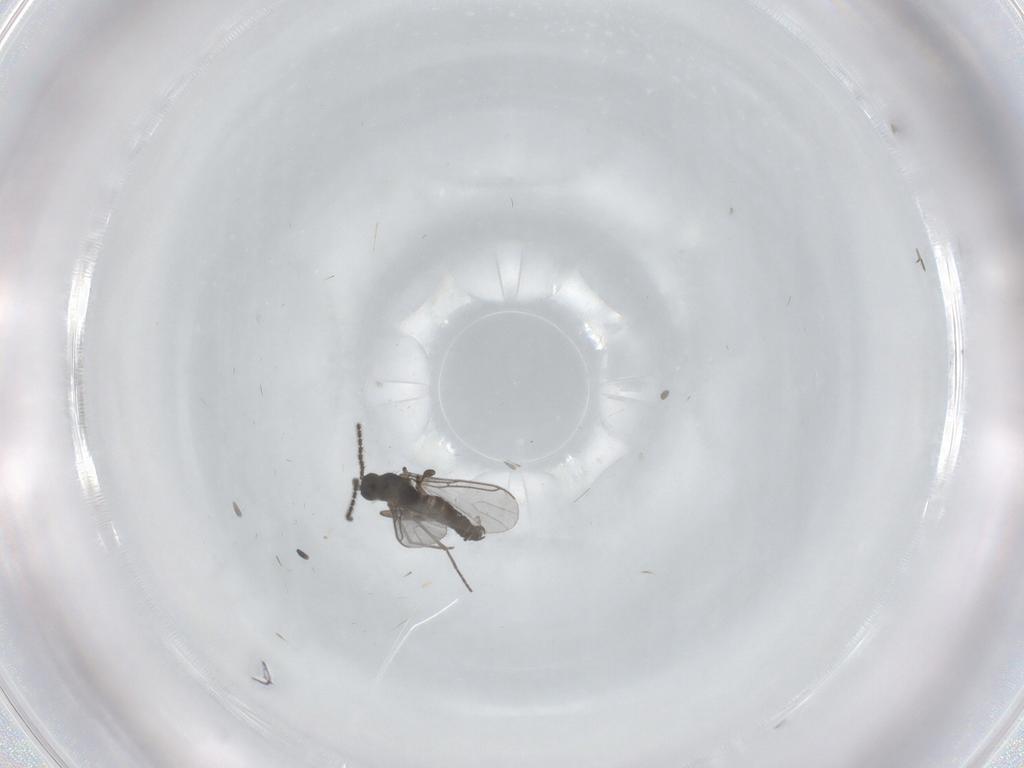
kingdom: Animalia
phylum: Arthropoda
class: Insecta
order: Diptera
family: Sciaridae
